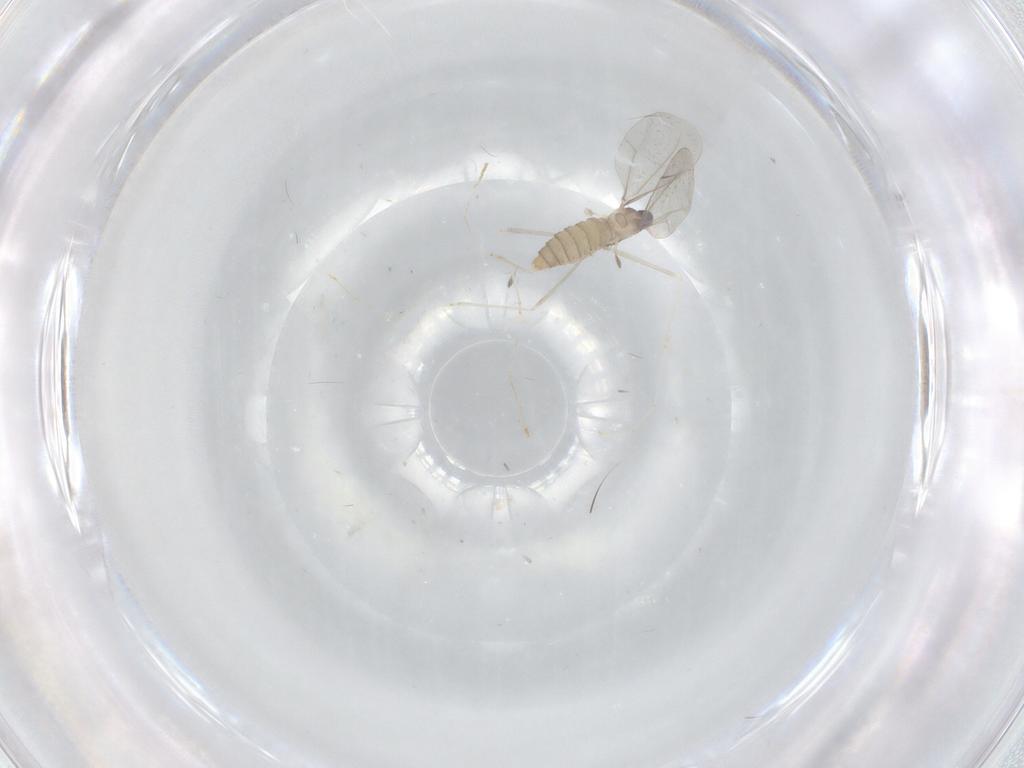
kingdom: Animalia
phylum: Arthropoda
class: Insecta
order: Diptera
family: Cecidomyiidae
